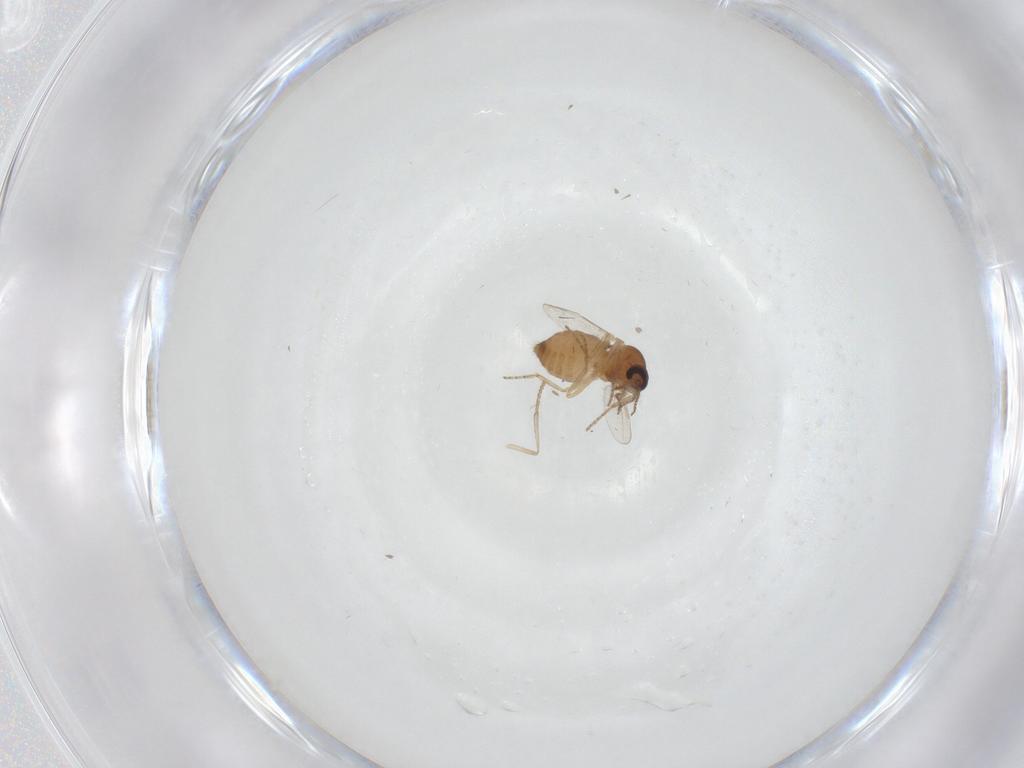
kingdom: Animalia
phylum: Arthropoda
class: Insecta
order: Diptera
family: Ceratopogonidae
